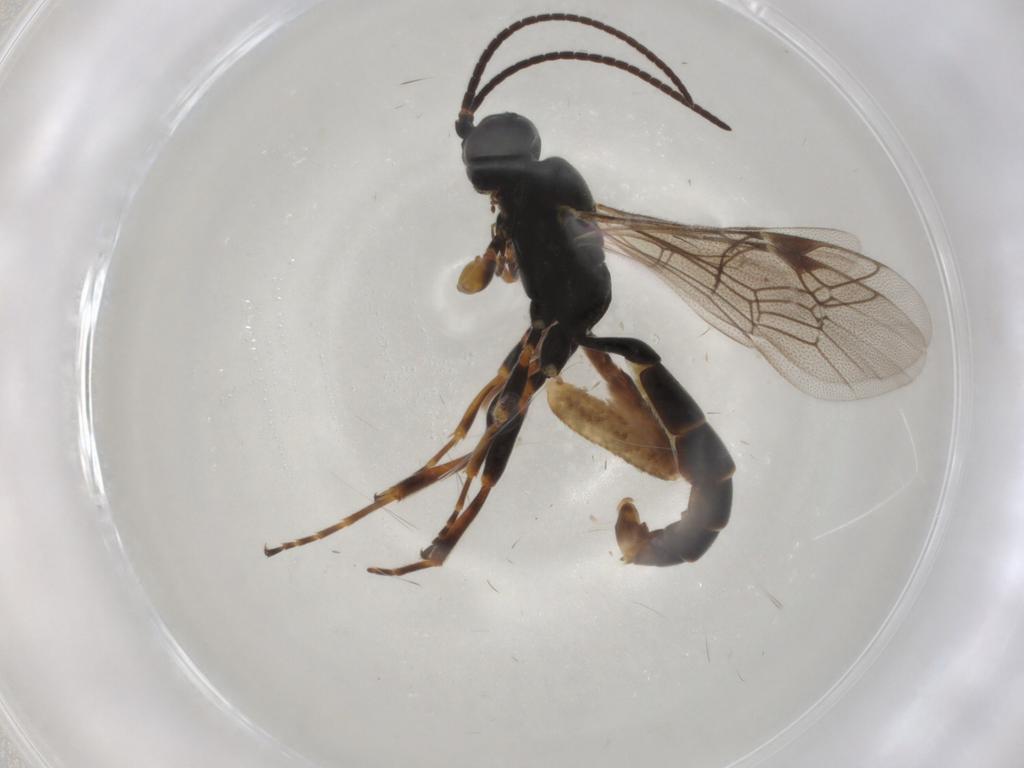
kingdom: Animalia
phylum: Arthropoda
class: Insecta
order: Hymenoptera
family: Ichneumonidae
